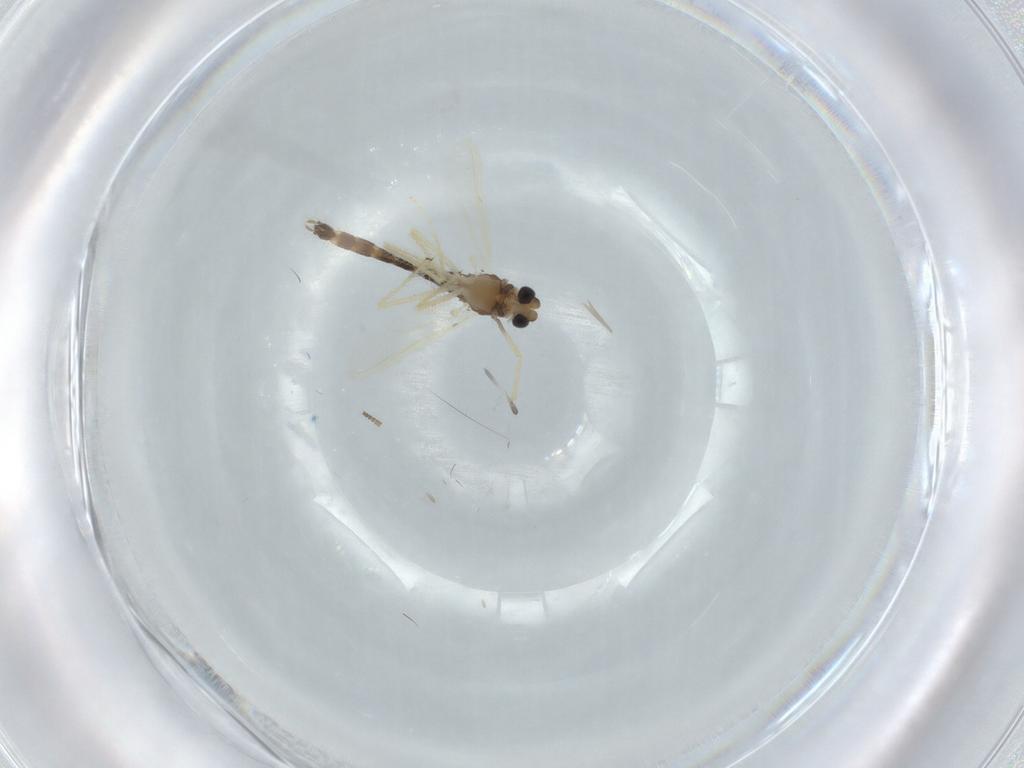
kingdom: Animalia
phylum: Arthropoda
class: Insecta
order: Diptera
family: Chironomidae
